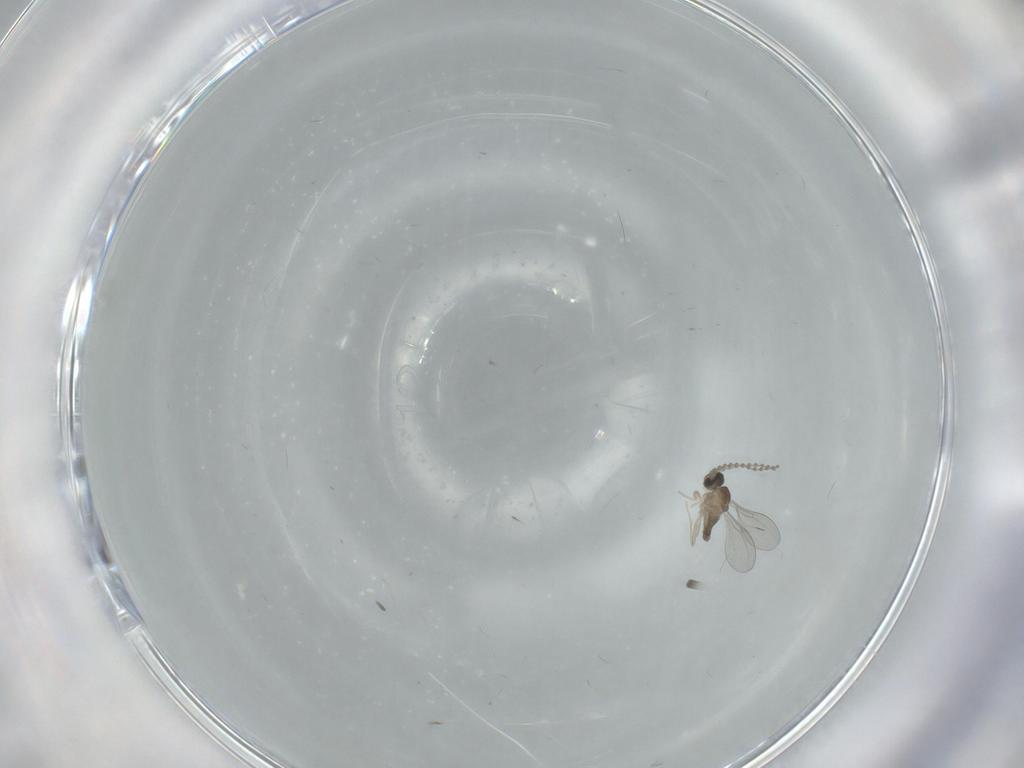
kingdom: Animalia
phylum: Arthropoda
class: Insecta
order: Diptera
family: Cecidomyiidae
